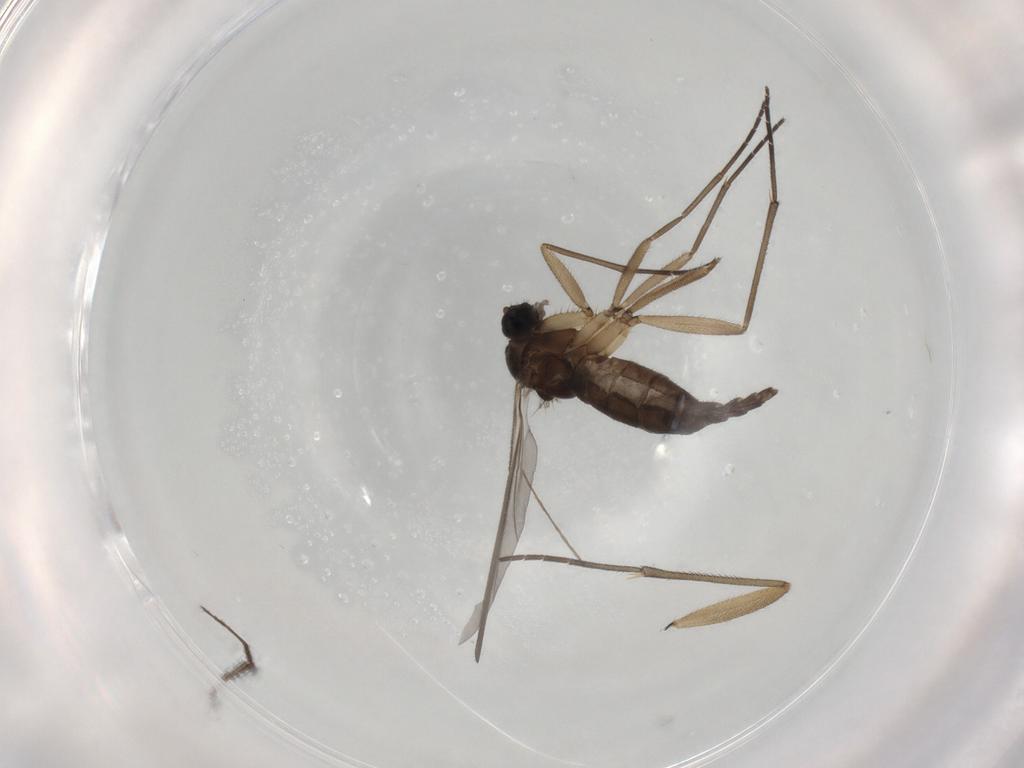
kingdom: Animalia
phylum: Arthropoda
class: Insecta
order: Diptera
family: Sciaridae
